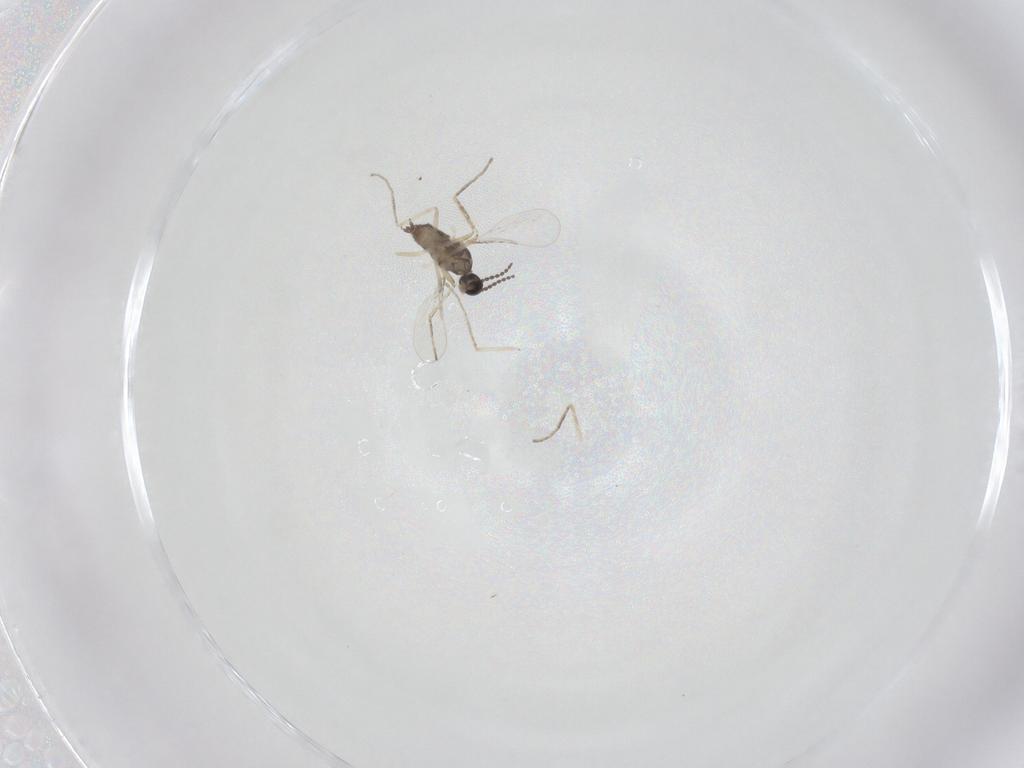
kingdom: Animalia
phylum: Arthropoda
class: Insecta
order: Diptera
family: Cecidomyiidae
